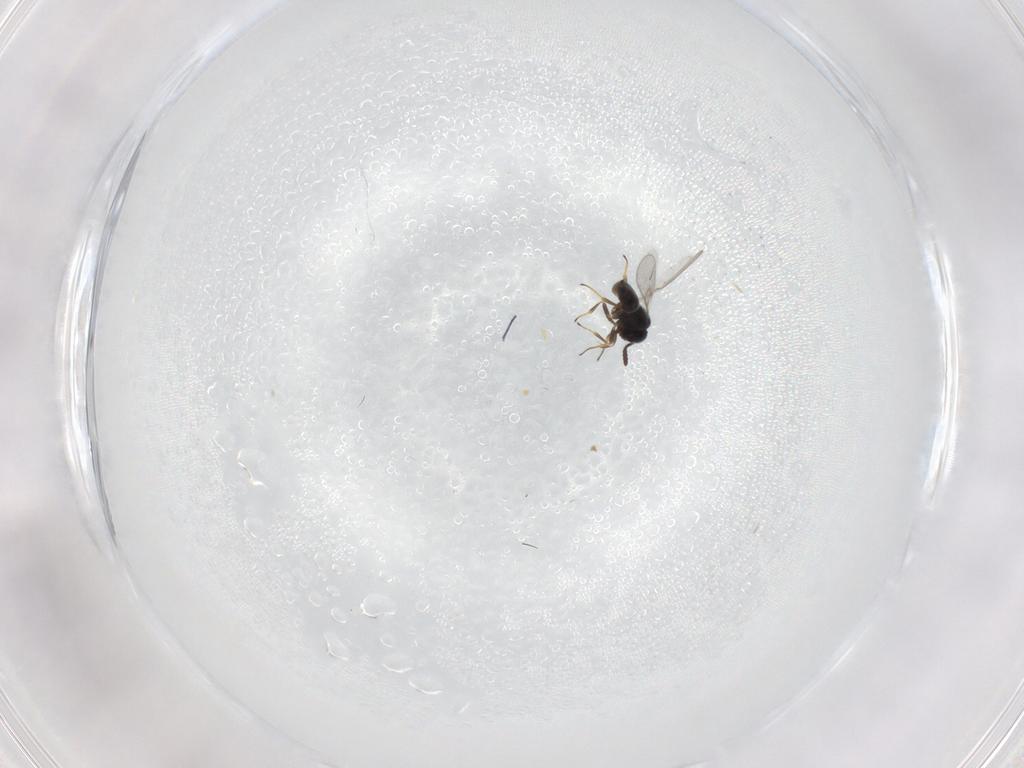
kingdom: Animalia
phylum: Arthropoda
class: Insecta
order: Hymenoptera
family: Scelionidae
